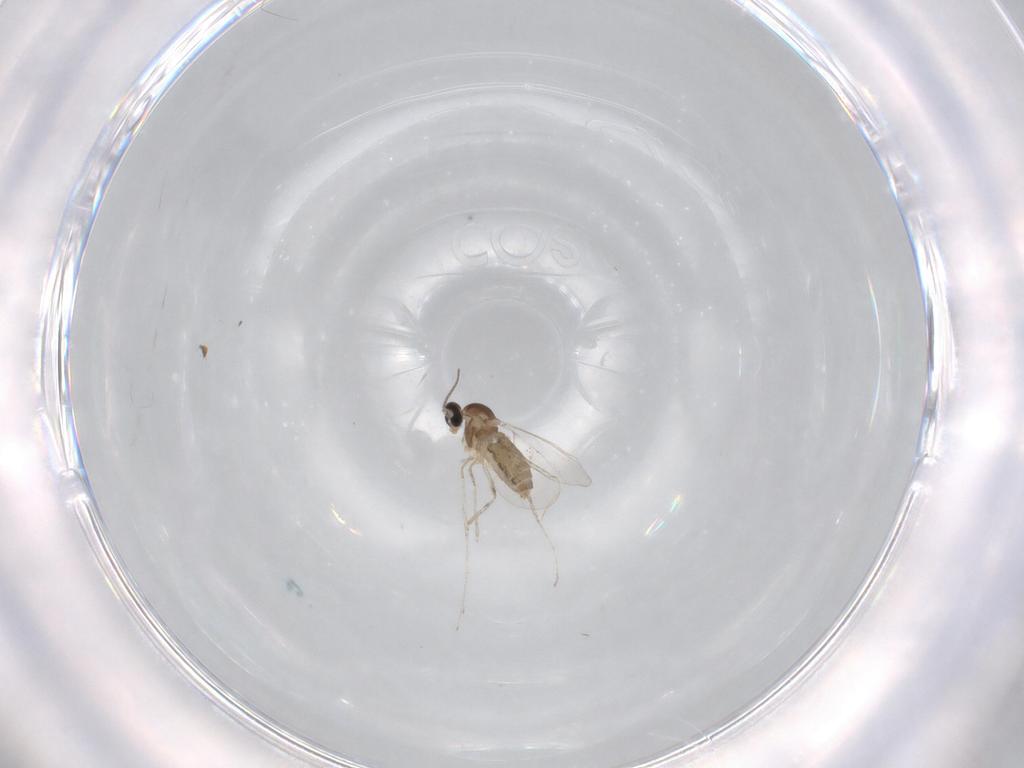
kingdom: Animalia
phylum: Arthropoda
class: Insecta
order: Diptera
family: Cecidomyiidae
